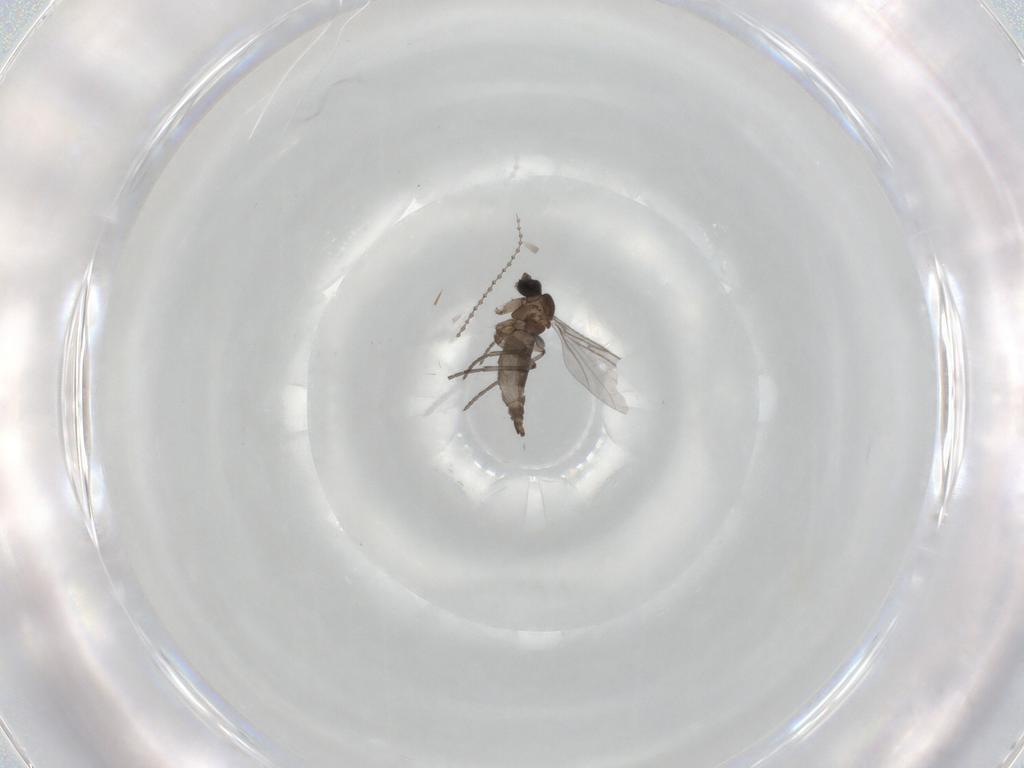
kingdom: Animalia
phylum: Arthropoda
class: Insecta
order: Diptera
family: Cecidomyiidae
